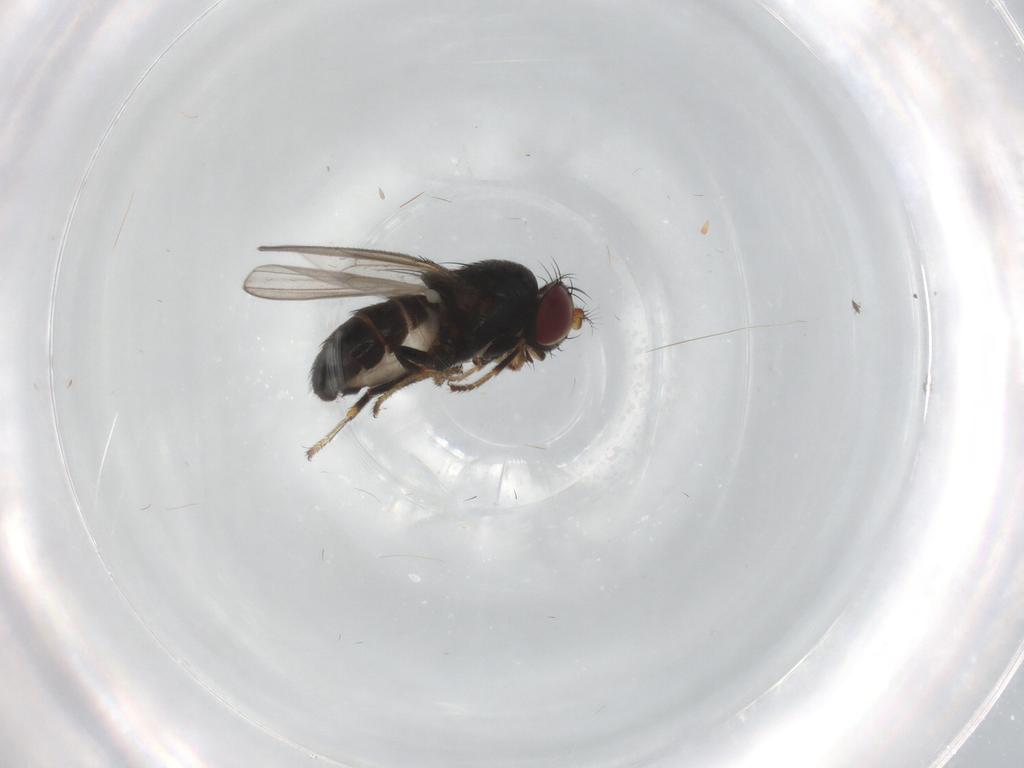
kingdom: Animalia
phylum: Arthropoda
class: Insecta
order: Diptera
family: Ephydridae
